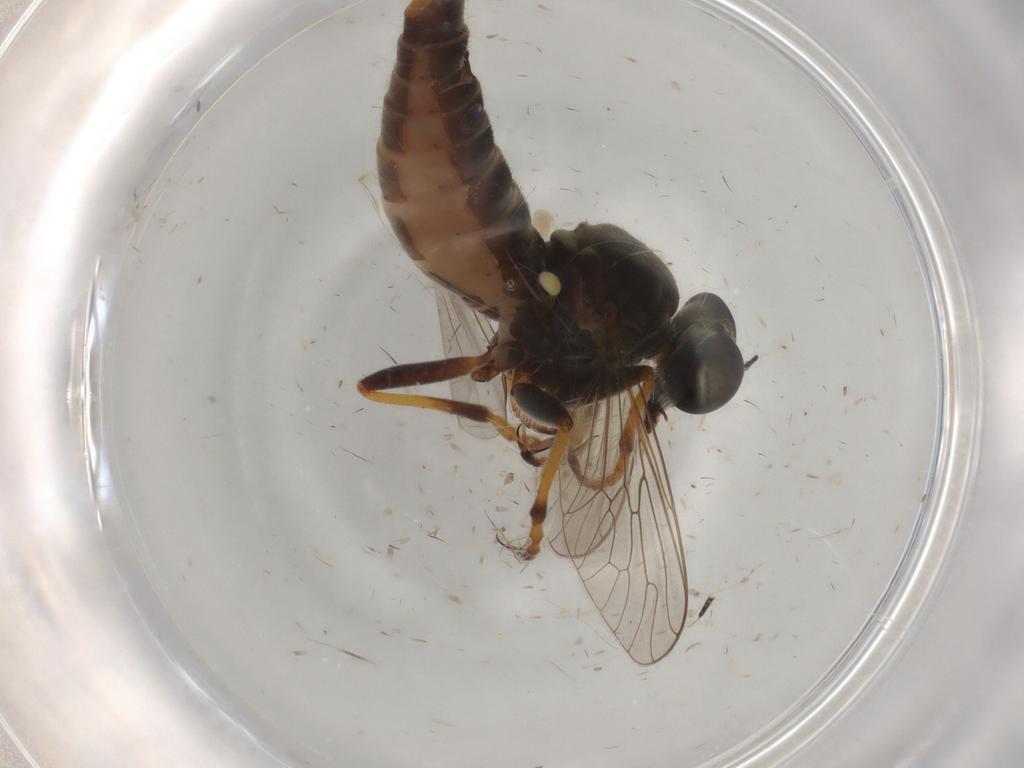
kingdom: Animalia
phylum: Arthropoda
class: Insecta
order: Diptera
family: Asilidae
